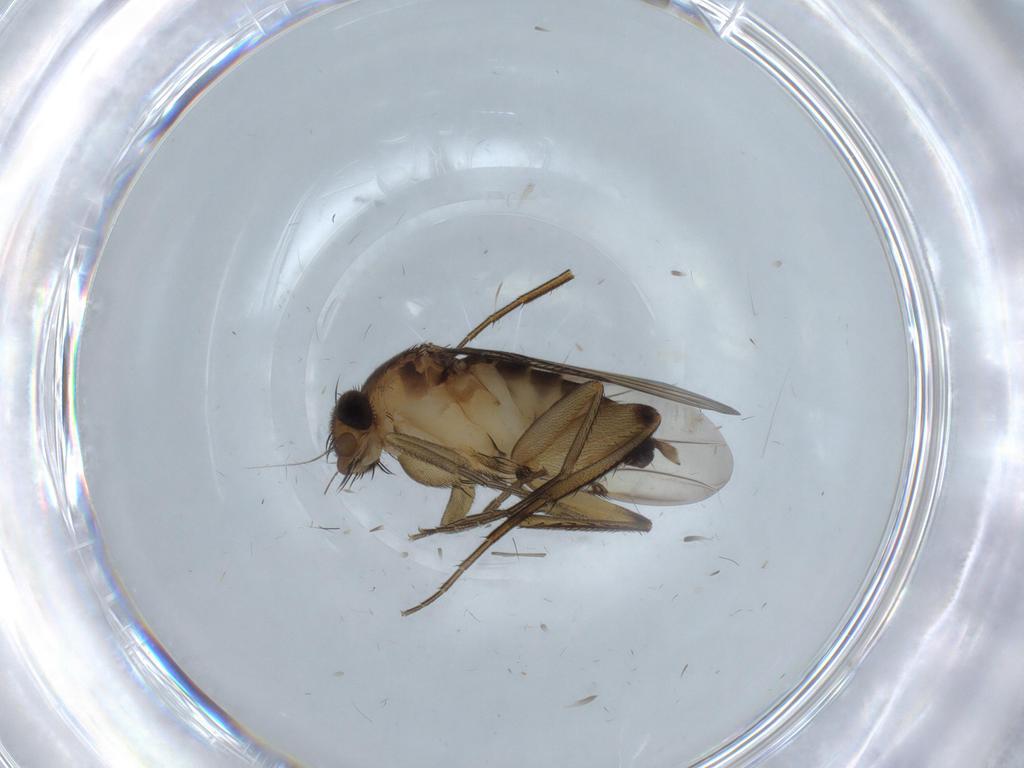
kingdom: Animalia
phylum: Arthropoda
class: Insecta
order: Diptera
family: Phoridae
